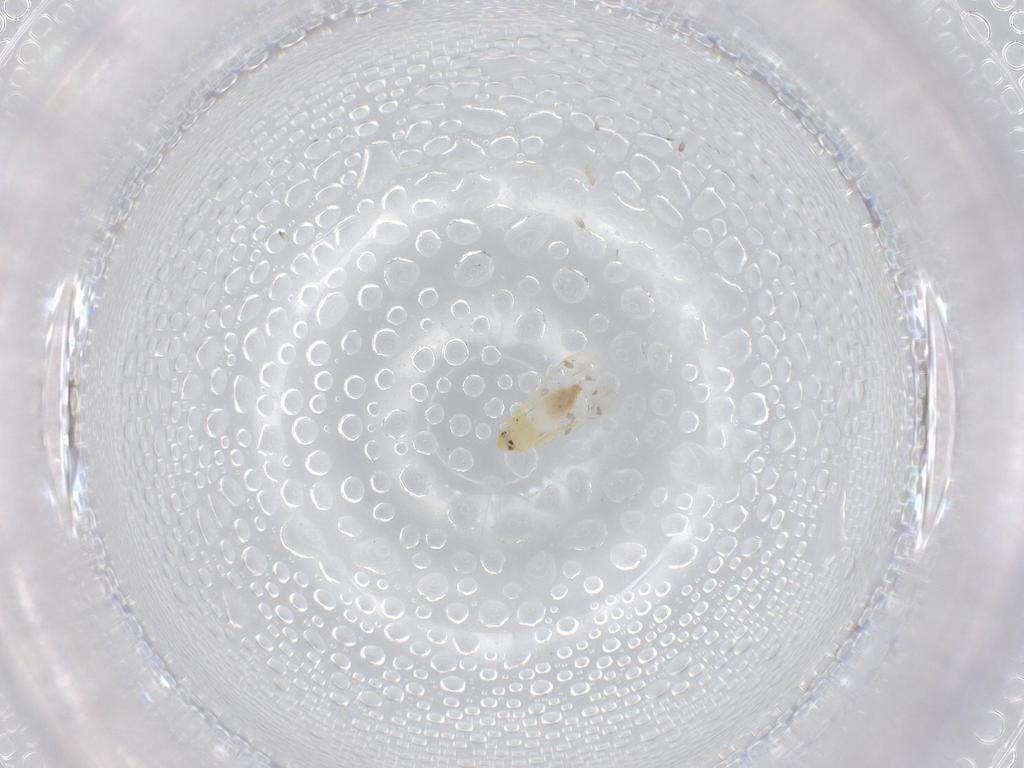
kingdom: Animalia
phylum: Arthropoda
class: Insecta
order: Hemiptera
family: Aleyrodidae
